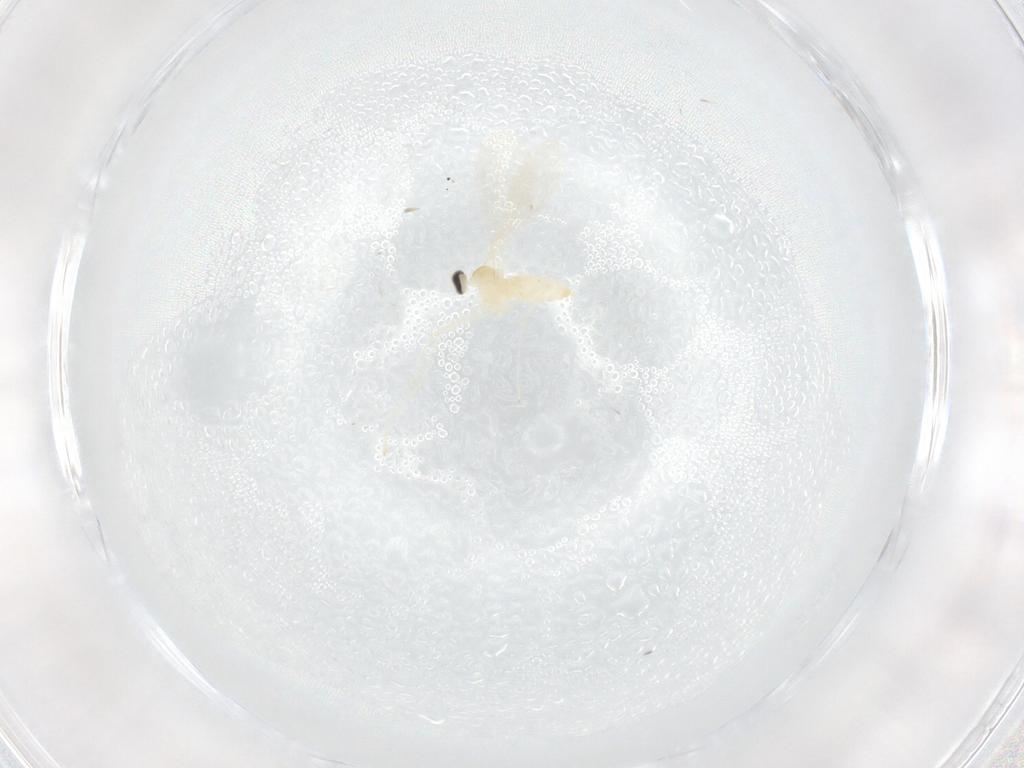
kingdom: Animalia
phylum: Arthropoda
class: Insecta
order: Diptera
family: Cecidomyiidae
